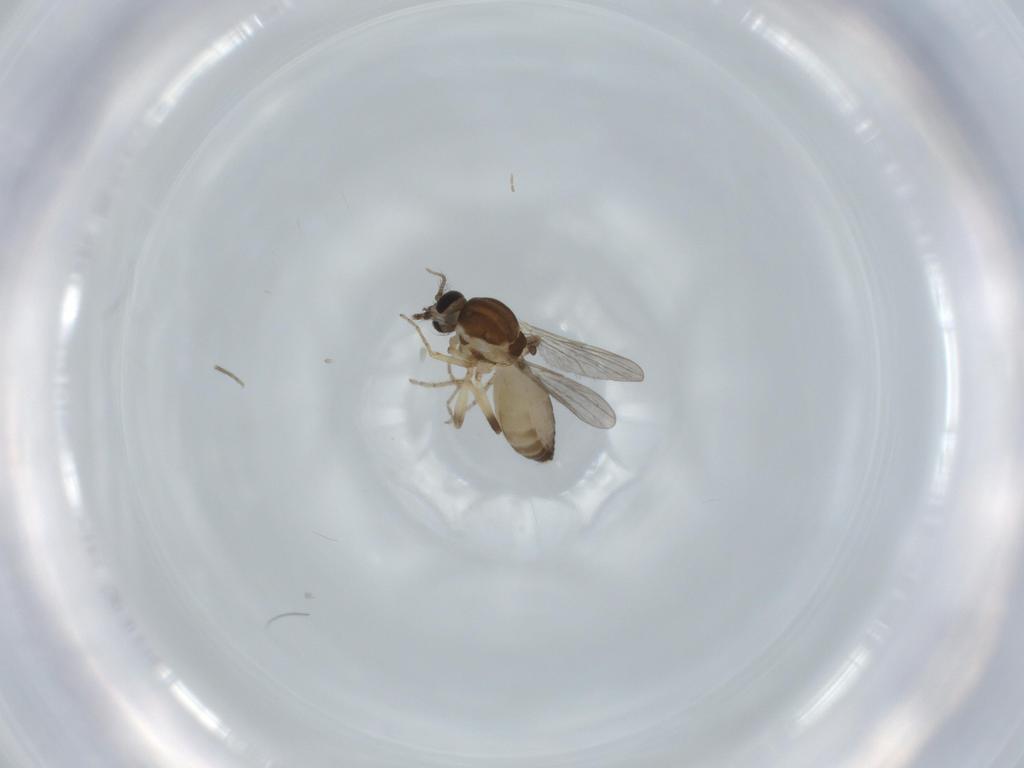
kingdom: Animalia
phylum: Arthropoda
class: Insecta
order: Diptera
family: Ceratopogonidae
